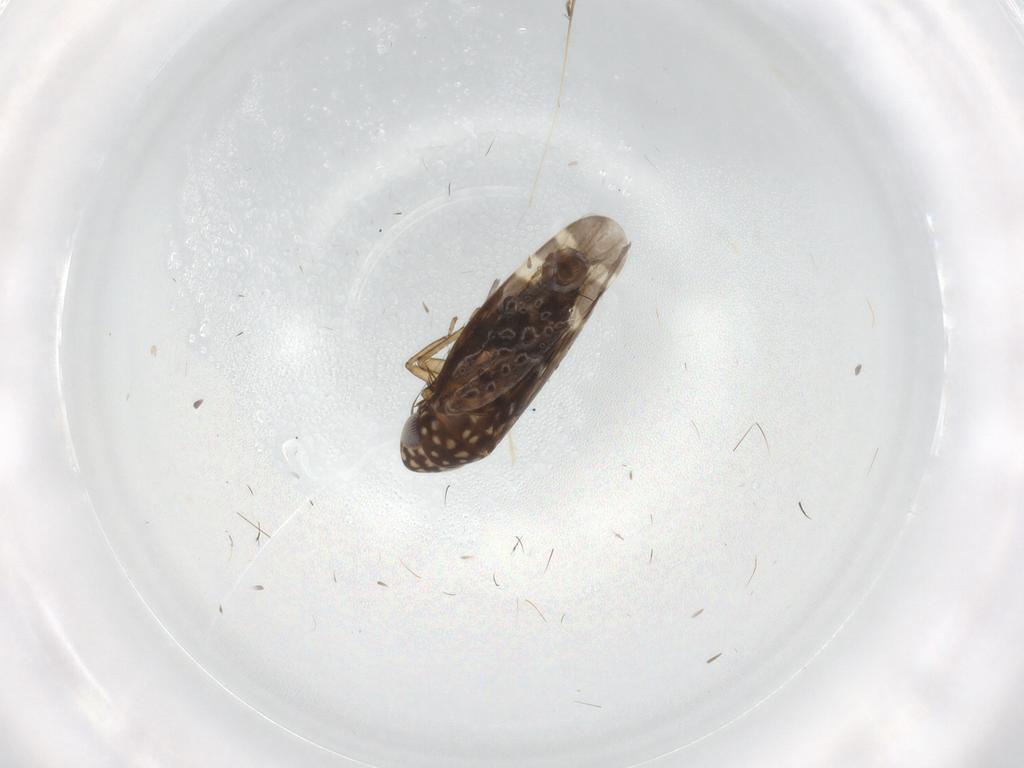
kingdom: Animalia
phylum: Arthropoda
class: Insecta
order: Hemiptera
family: Cicadellidae
